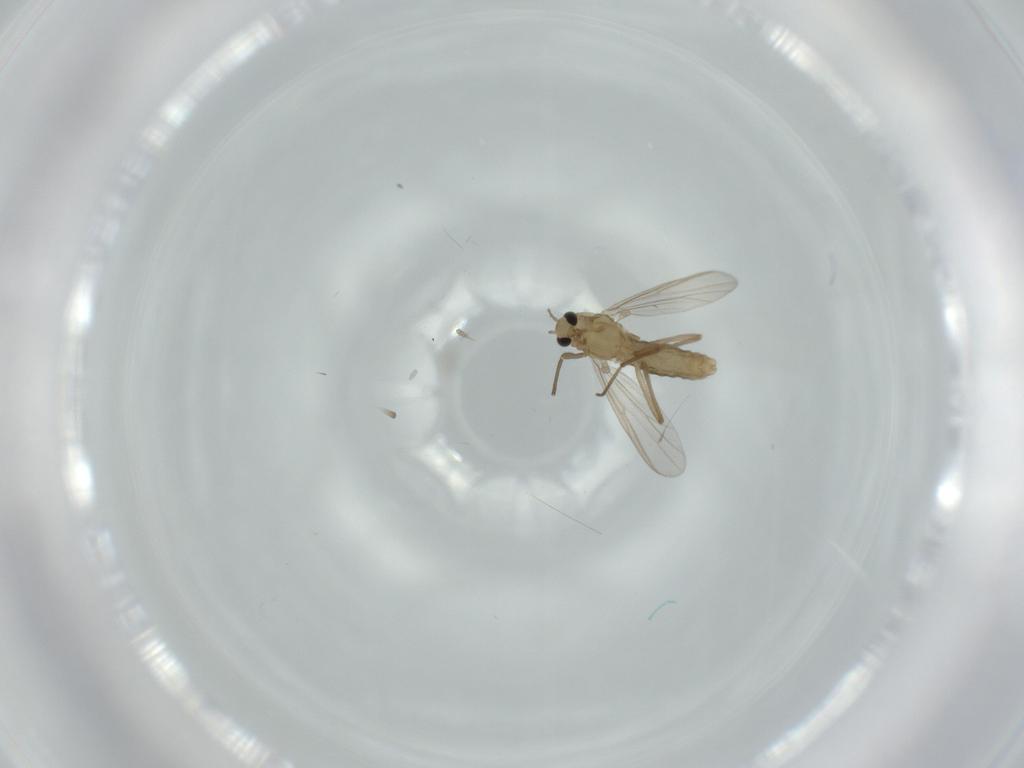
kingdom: Animalia
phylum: Arthropoda
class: Insecta
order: Diptera
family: Chironomidae
